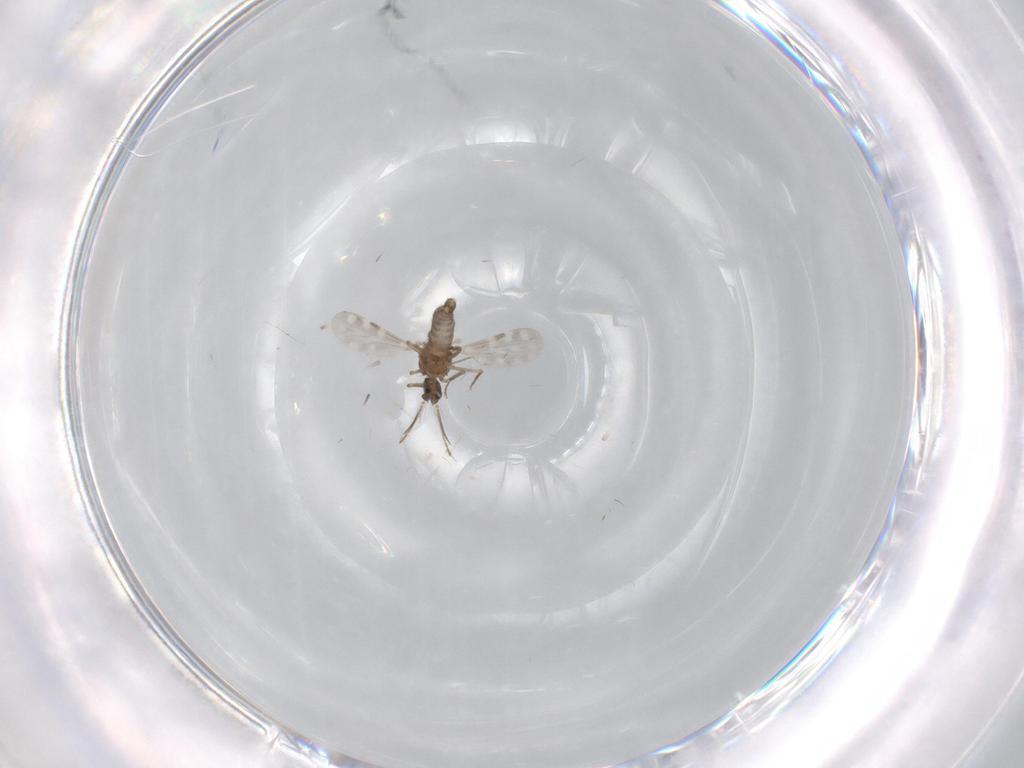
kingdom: Animalia
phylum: Arthropoda
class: Insecta
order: Diptera
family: Ceratopogonidae
